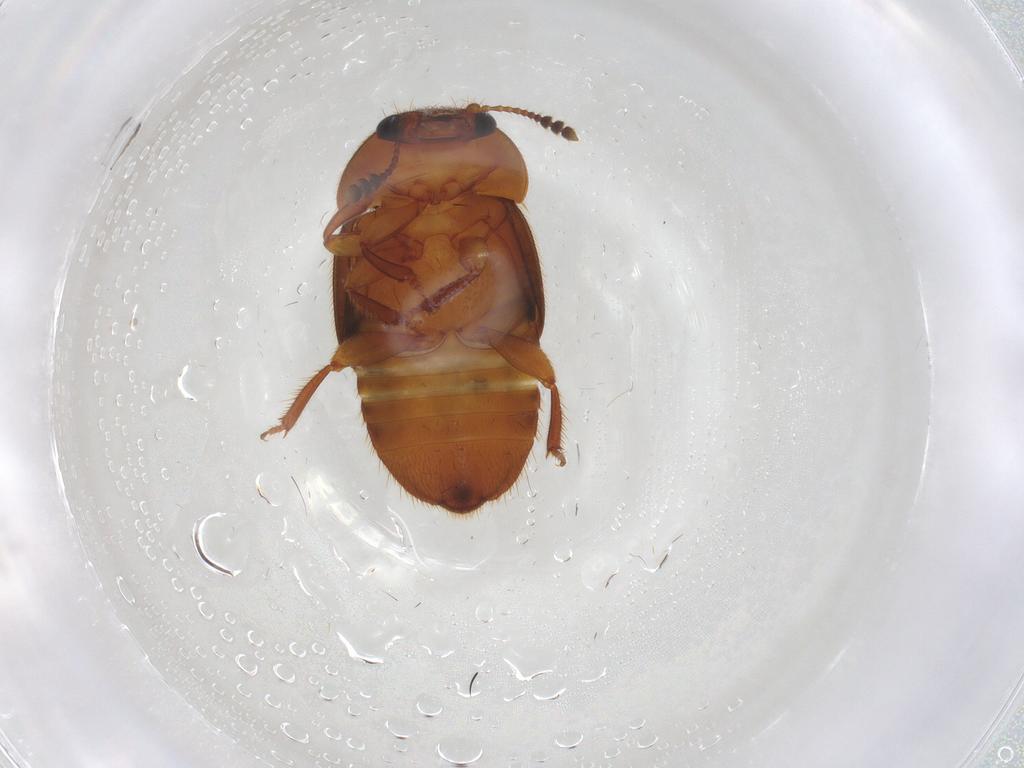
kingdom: Animalia
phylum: Arthropoda
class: Insecta
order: Coleoptera
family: Nitidulidae
